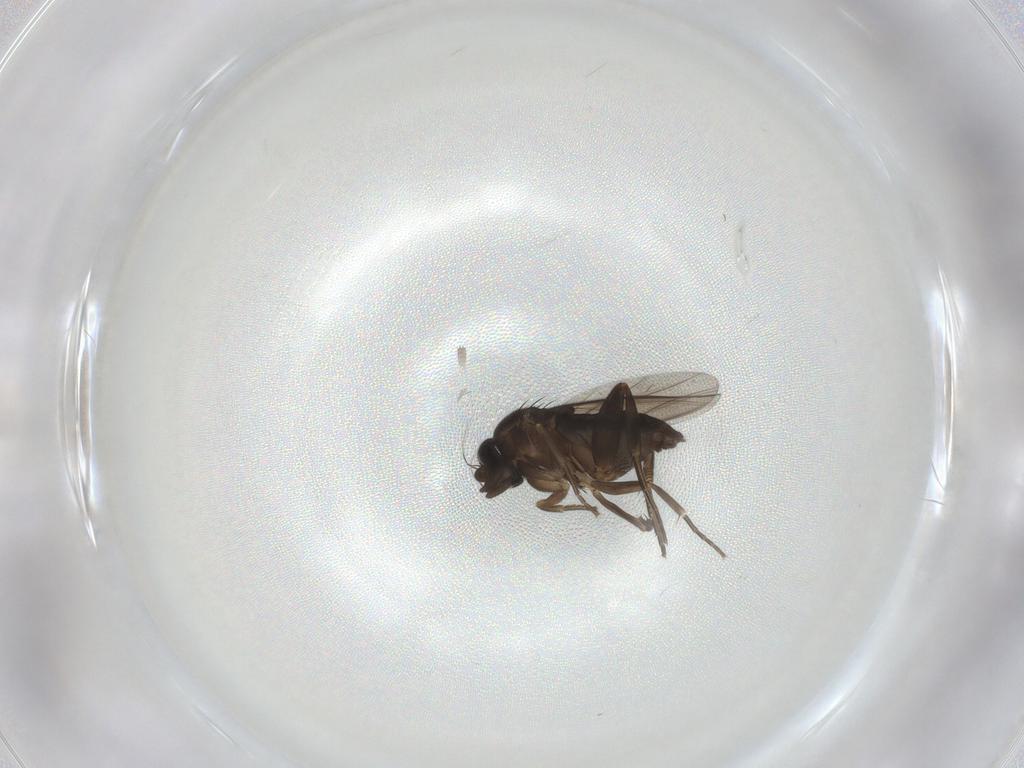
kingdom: Animalia
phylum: Arthropoda
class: Insecta
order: Diptera
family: Phoridae
